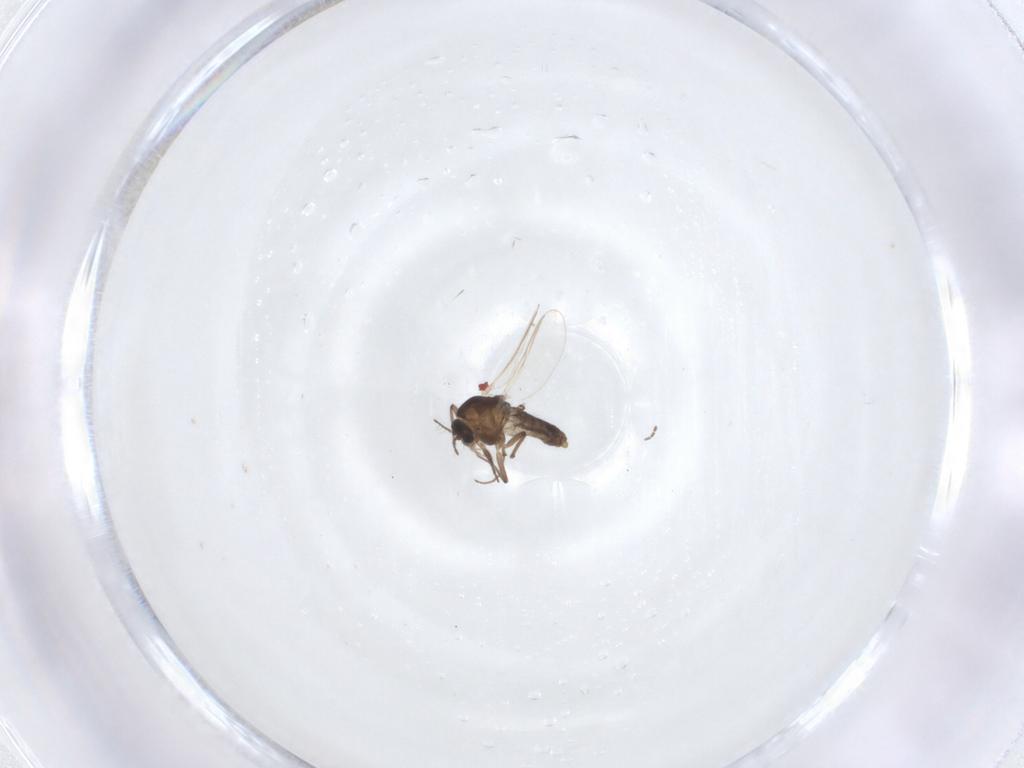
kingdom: Animalia
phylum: Arthropoda
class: Insecta
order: Diptera
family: Chironomidae
